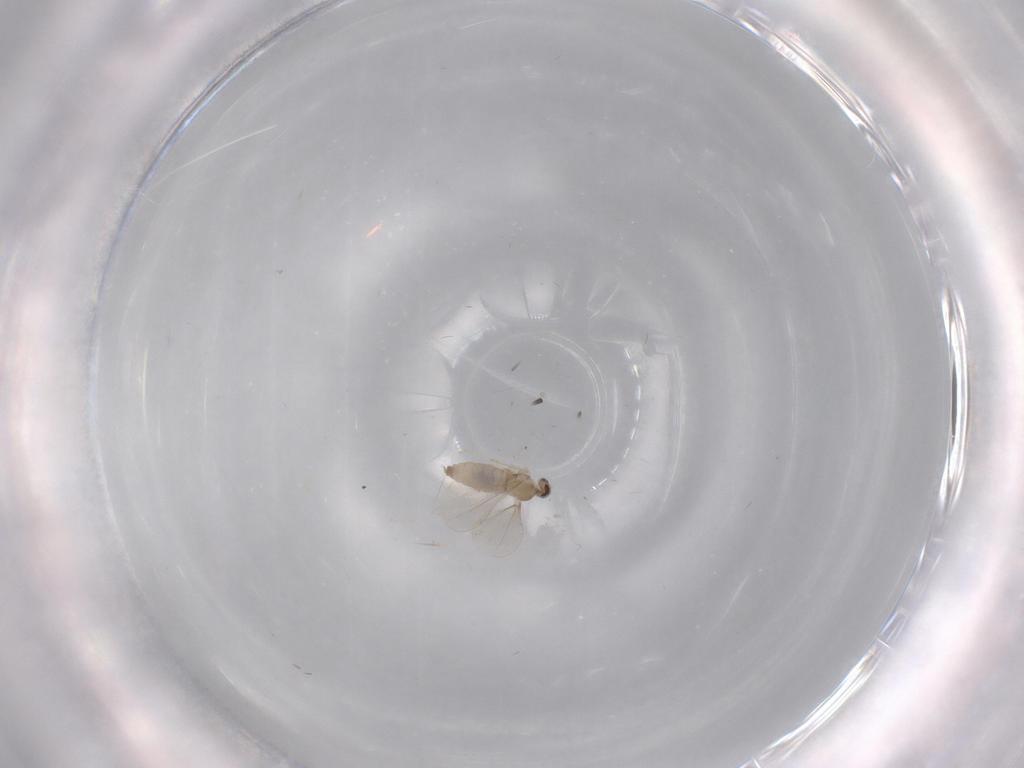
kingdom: Animalia
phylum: Arthropoda
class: Insecta
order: Diptera
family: Cecidomyiidae
